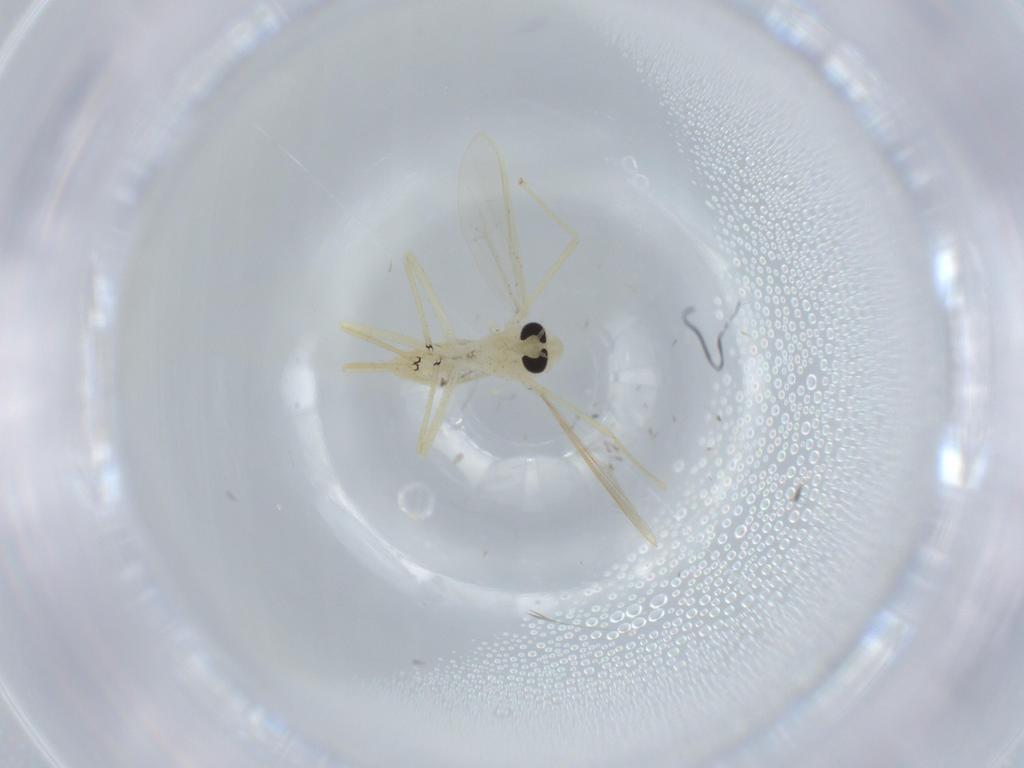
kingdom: Animalia
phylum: Arthropoda
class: Insecta
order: Diptera
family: Chironomidae
